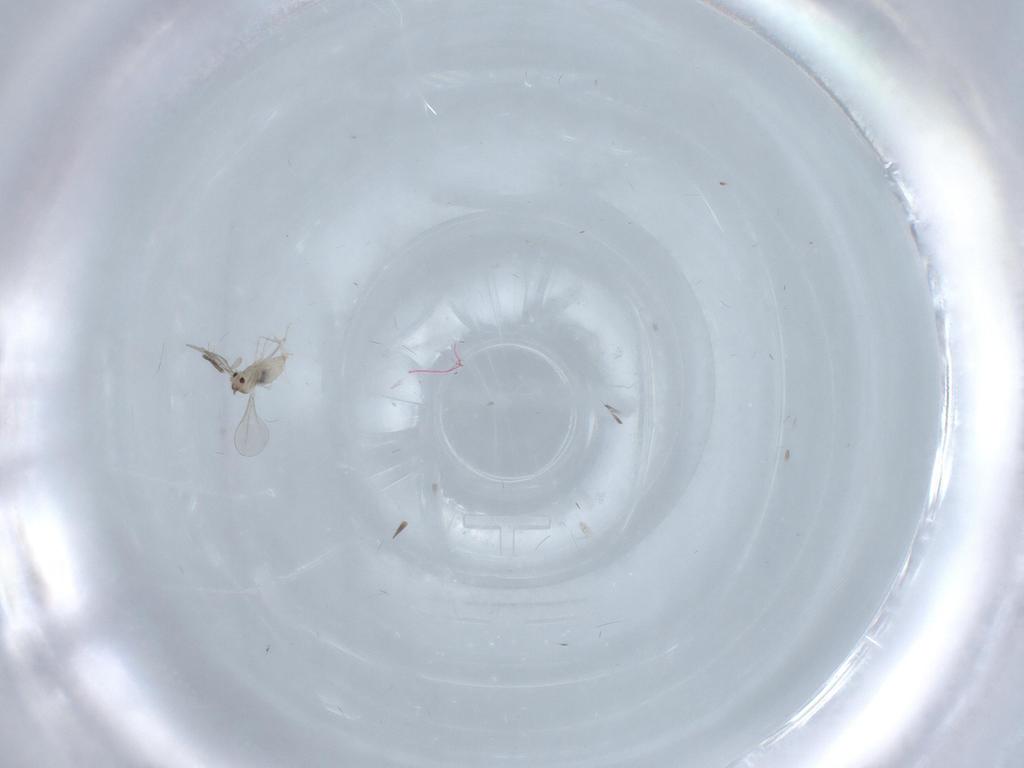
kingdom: Animalia
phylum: Arthropoda
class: Insecta
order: Diptera
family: Cecidomyiidae
